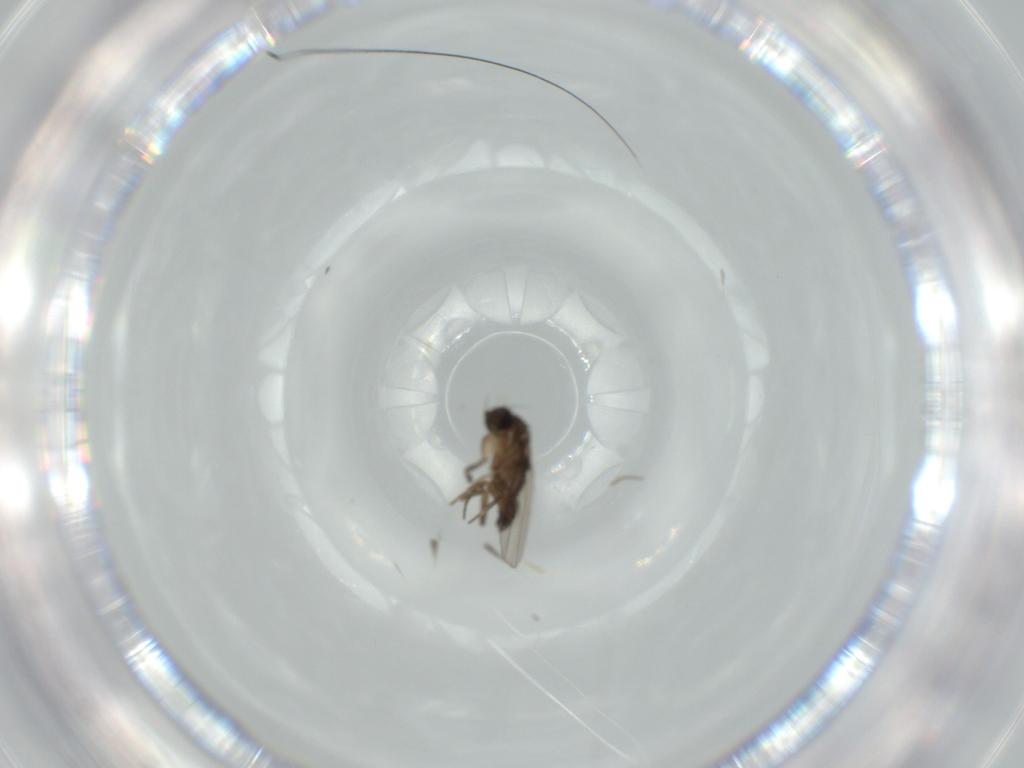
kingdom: Animalia
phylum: Arthropoda
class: Insecta
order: Diptera
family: Phoridae
